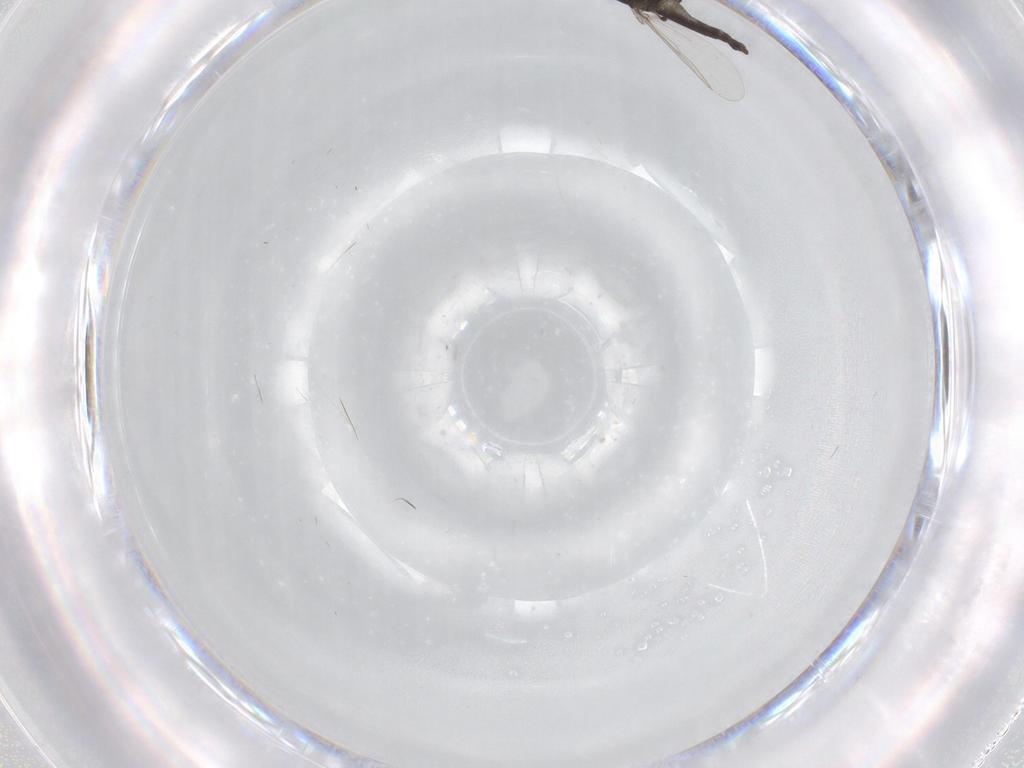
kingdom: Animalia
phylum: Arthropoda
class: Insecta
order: Diptera
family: Chironomidae
